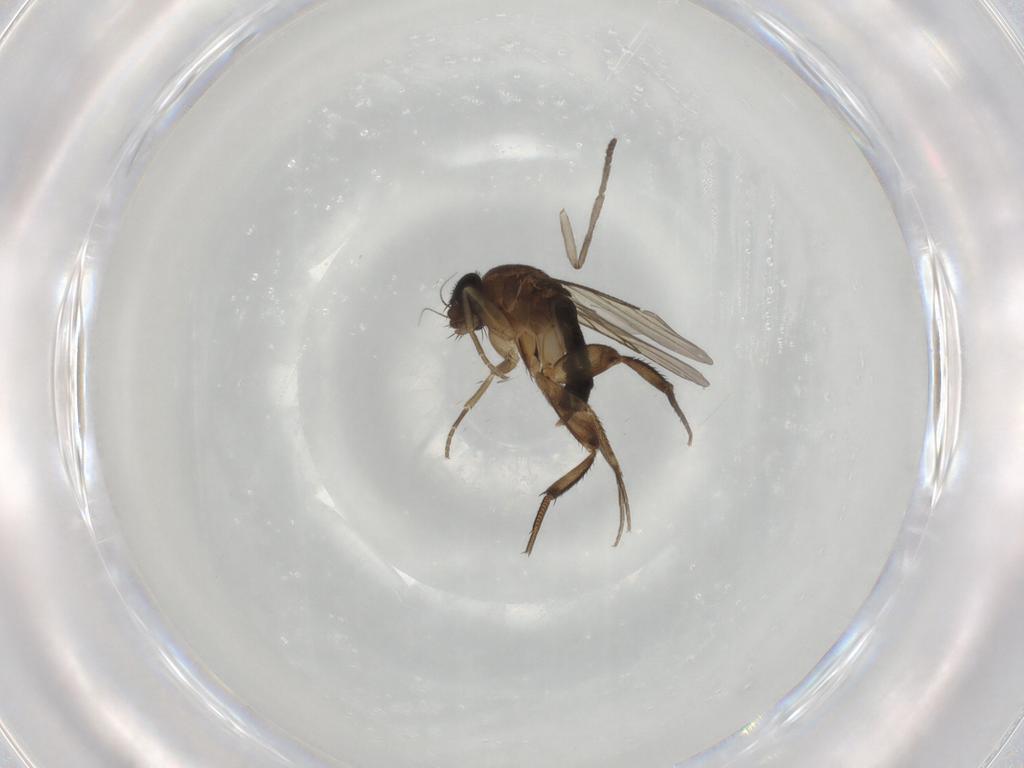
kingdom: Animalia
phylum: Arthropoda
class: Insecta
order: Diptera
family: Phoridae
